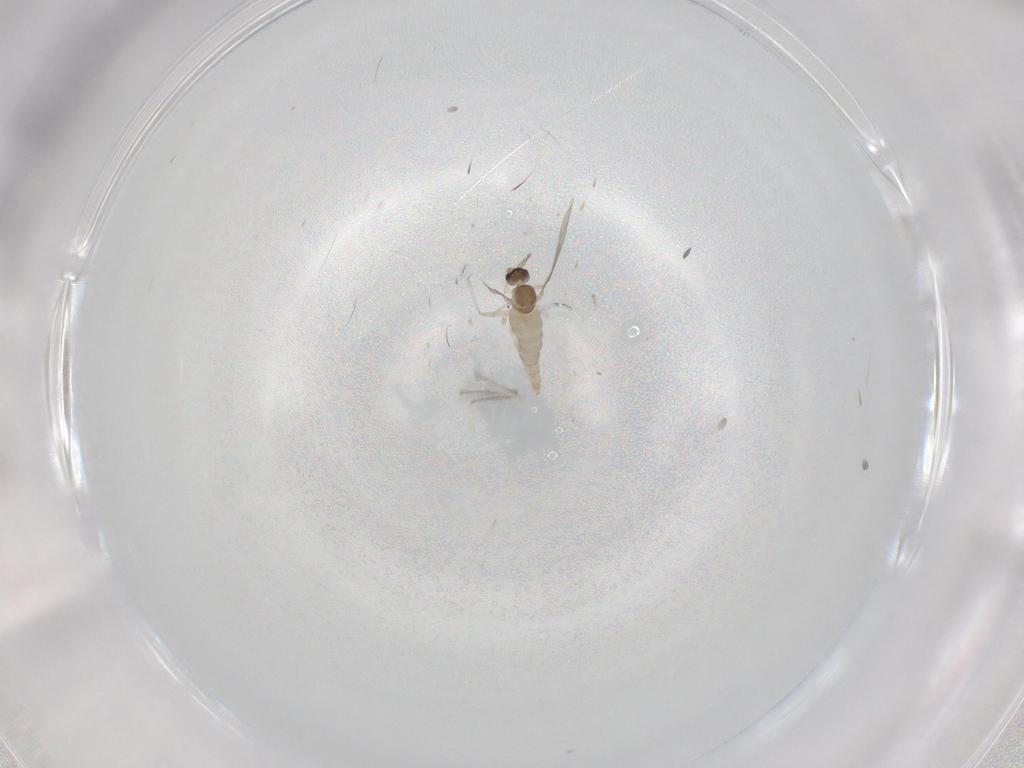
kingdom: Animalia
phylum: Arthropoda
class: Insecta
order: Diptera
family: Cecidomyiidae
